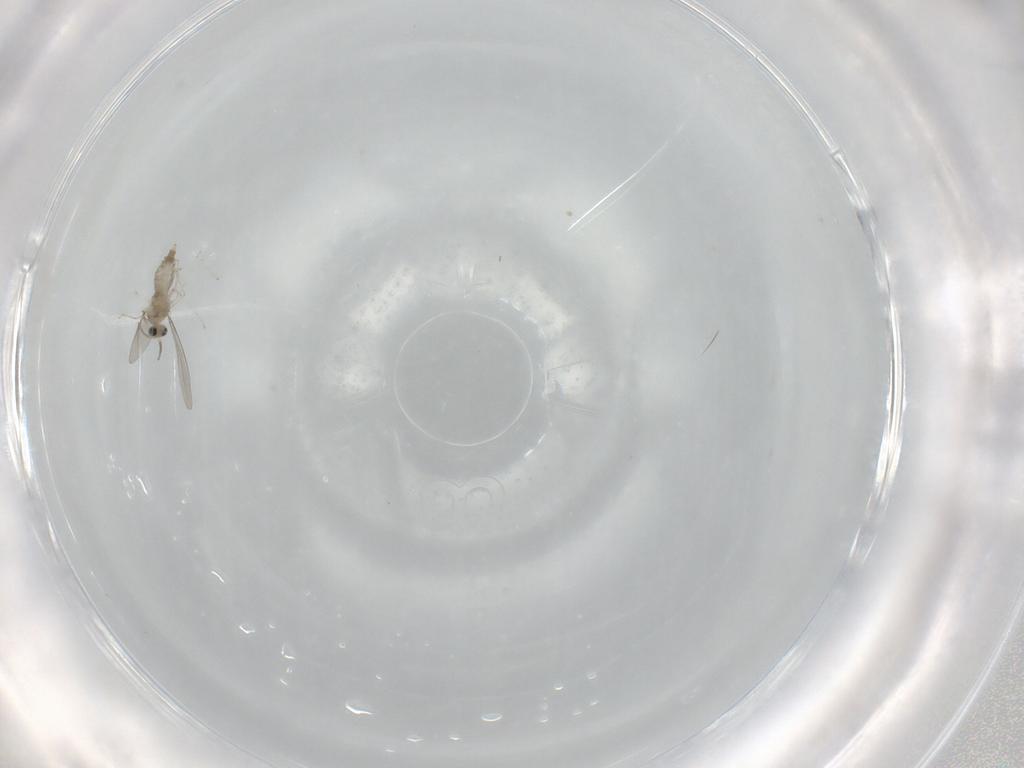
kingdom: Animalia
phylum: Arthropoda
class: Insecta
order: Diptera
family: Cecidomyiidae
